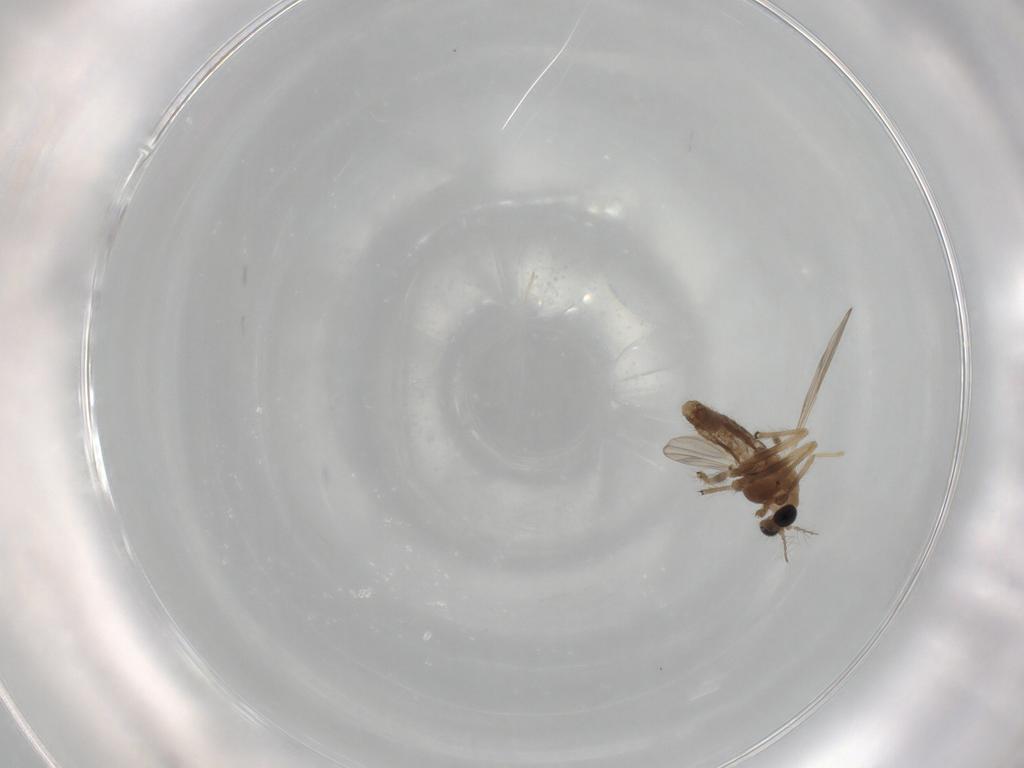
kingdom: Animalia
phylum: Arthropoda
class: Insecta
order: Diptera
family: Chironomidae
